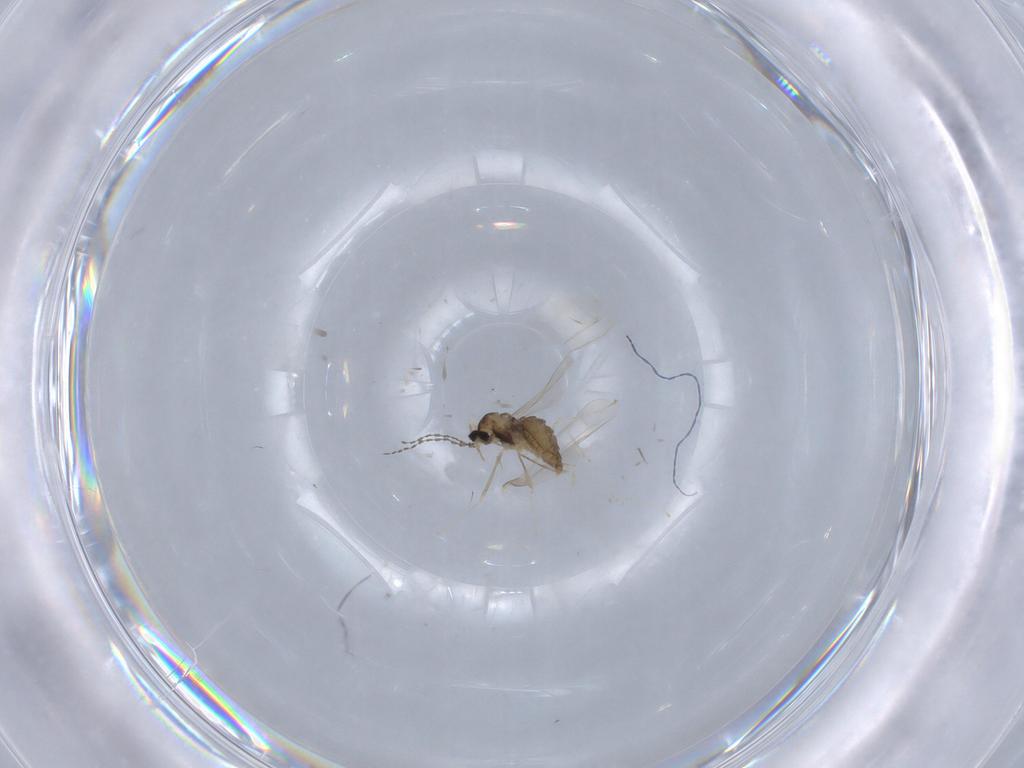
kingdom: Animalia
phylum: Arthropoda
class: Insecta
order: Diptera
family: Cecidomyiidae
